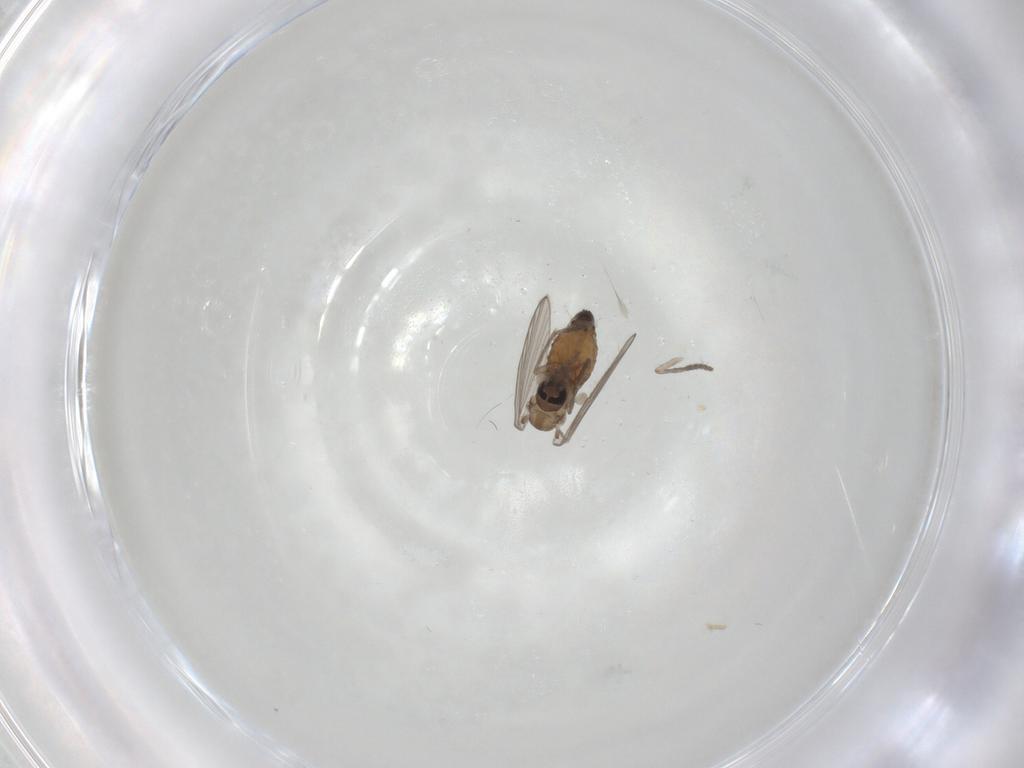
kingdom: Animalia
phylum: Arthropoda
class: Insecta
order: Diptera
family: Psychodidae
